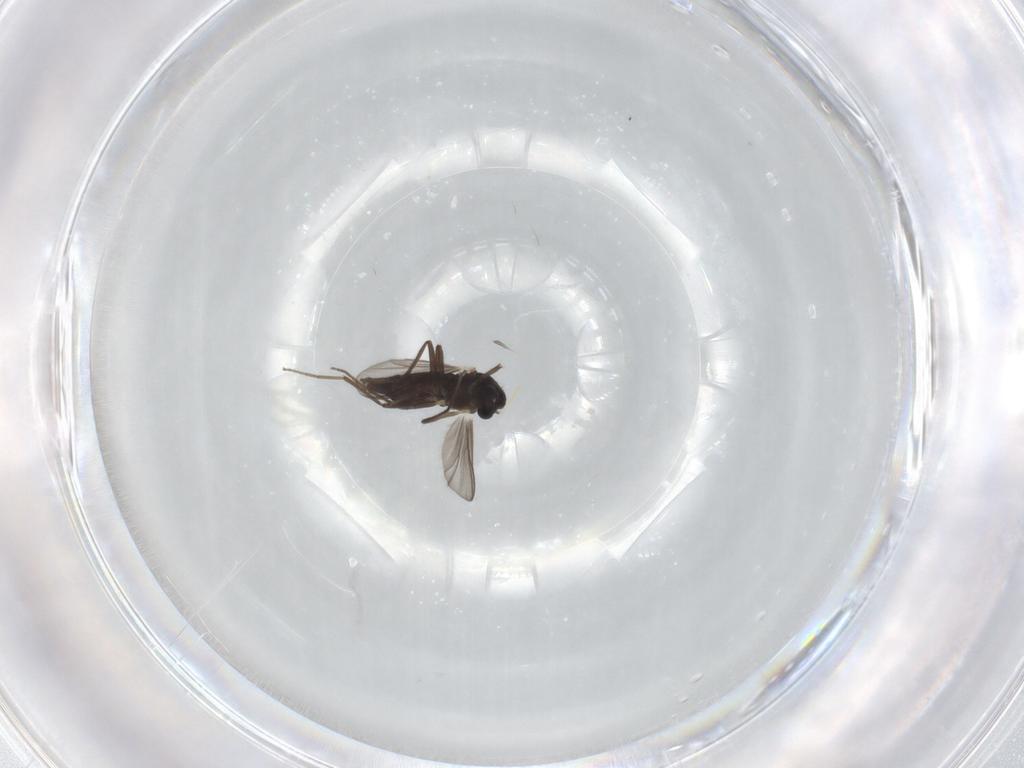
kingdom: Animalia
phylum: Arthropoda
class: Insecta
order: Diptera
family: Chironomidae
